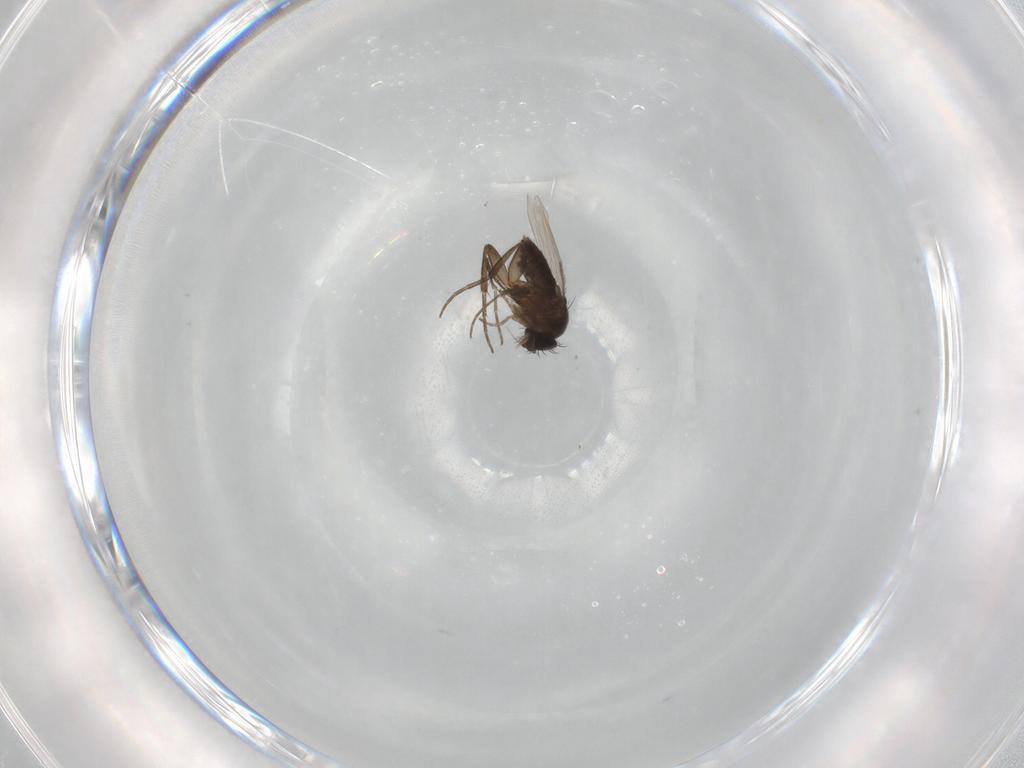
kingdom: Animalia
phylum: Arthropoda
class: Insecta
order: Diptera
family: Phoridae
